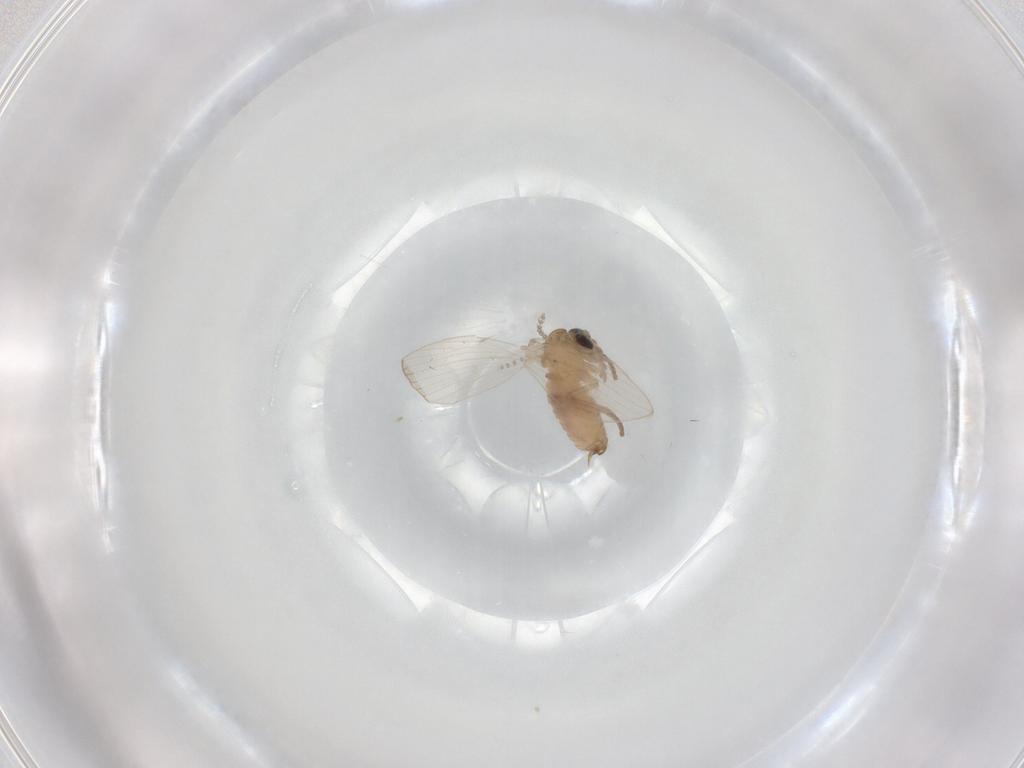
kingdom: Animalia
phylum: Arthropoda
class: Insecta
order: Diptera
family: Psychodidae
